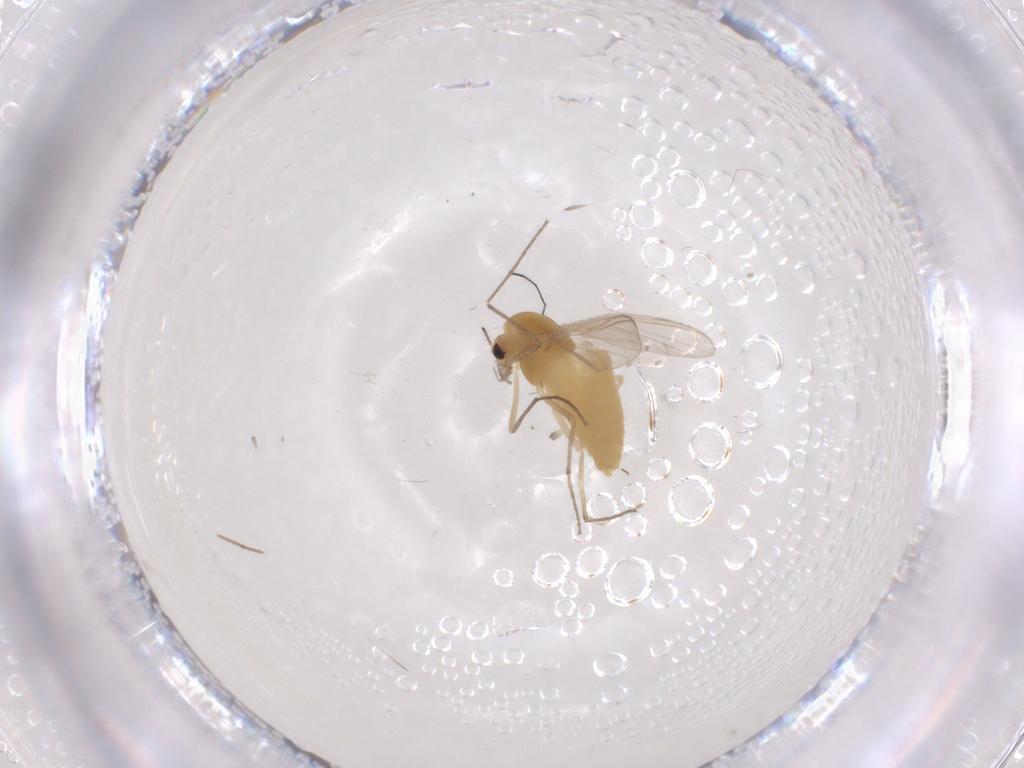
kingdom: Animalia
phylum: Arthropoda
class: Insecta
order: Diptera
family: Chironomidae
